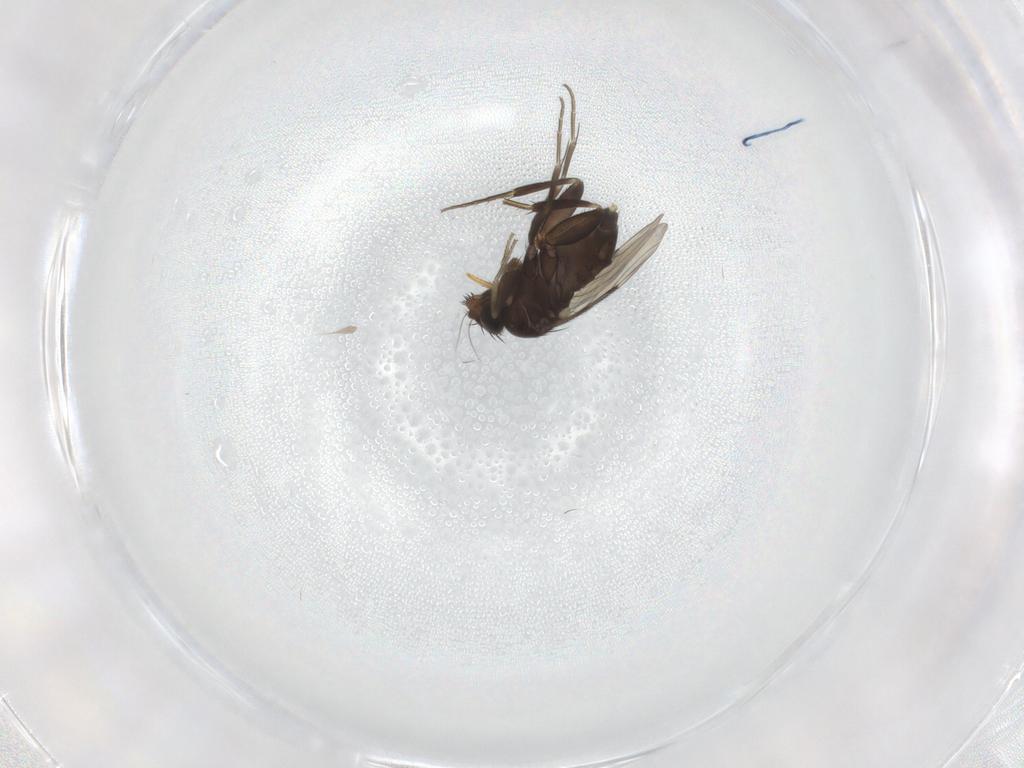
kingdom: Animalia
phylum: Arthropoda
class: Insecta
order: Diptera
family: Phoridae
